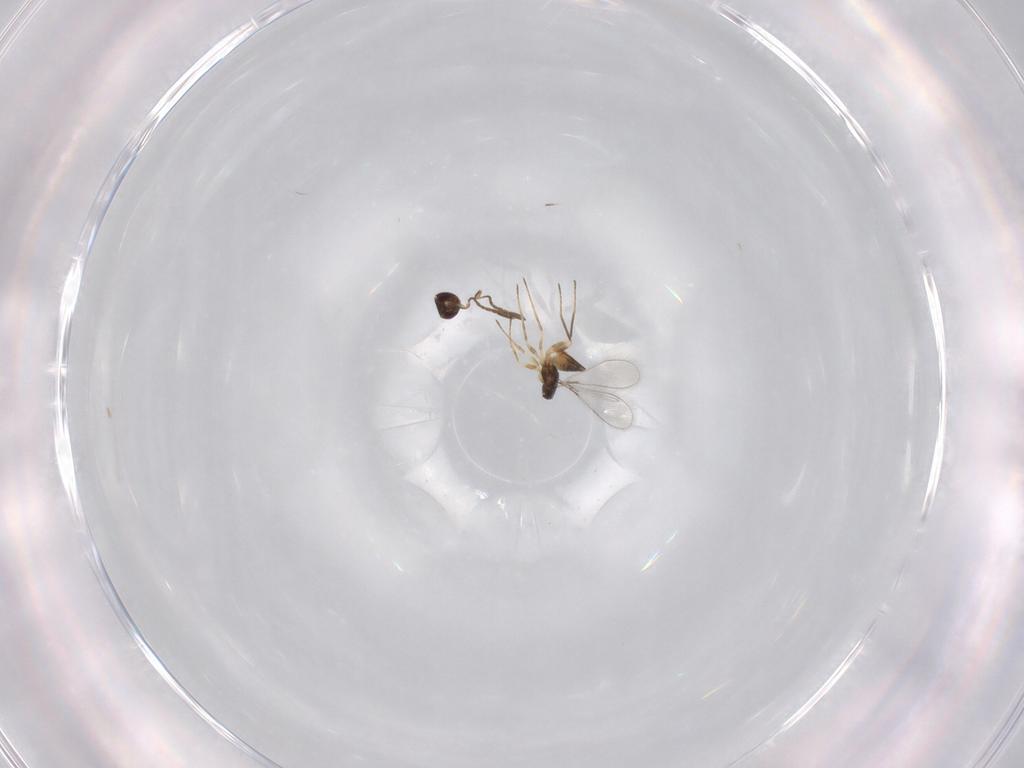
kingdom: Animalia
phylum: Arthropoda
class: Insecta
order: Hymenoptera
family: Mymaridae
